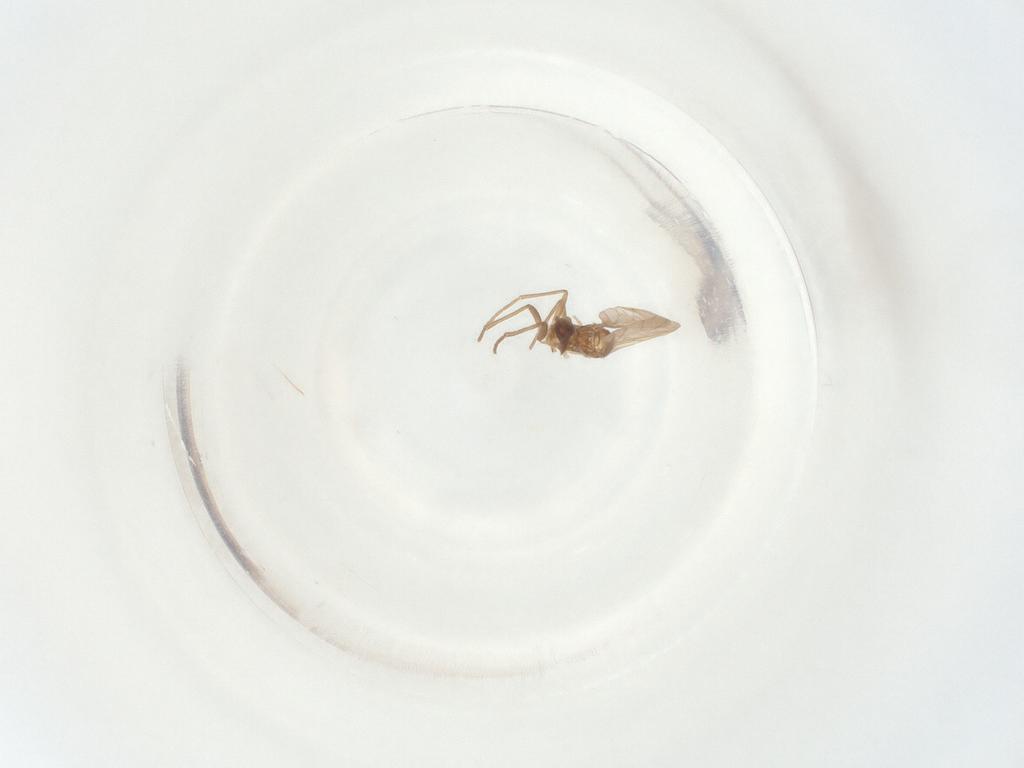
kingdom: Animalia
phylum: Arthropoda
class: Insecta
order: Diptera
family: Sciaridae
